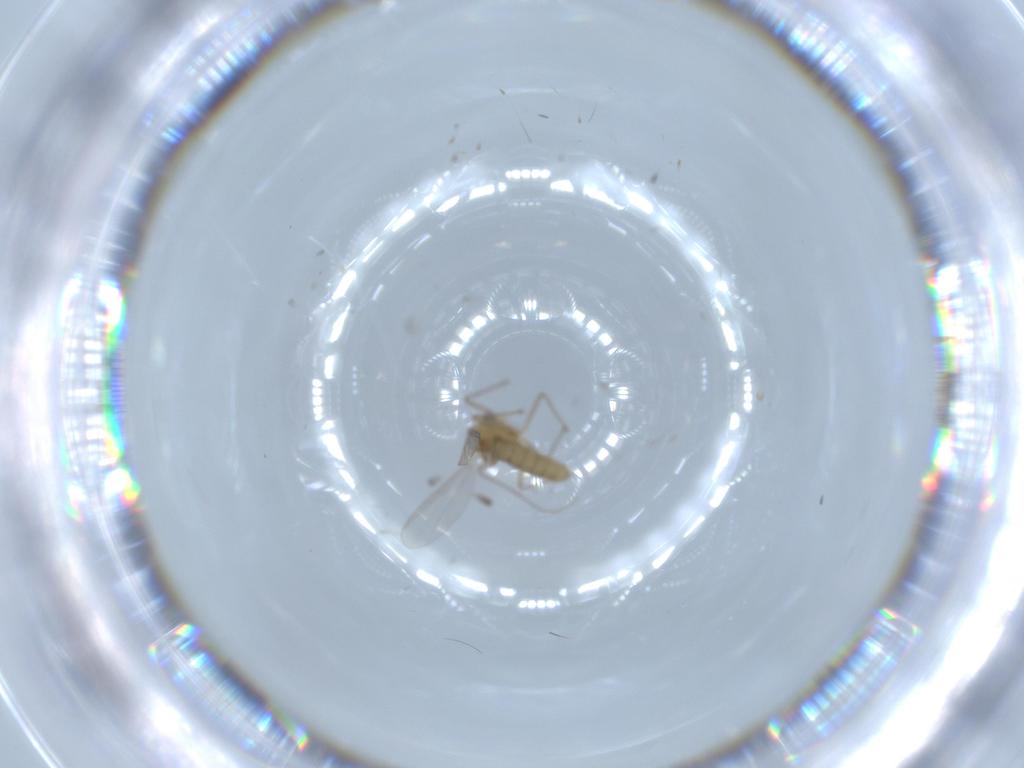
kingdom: Animalia
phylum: Arthropoda
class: Insecta
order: Diptera
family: Chironomidae
